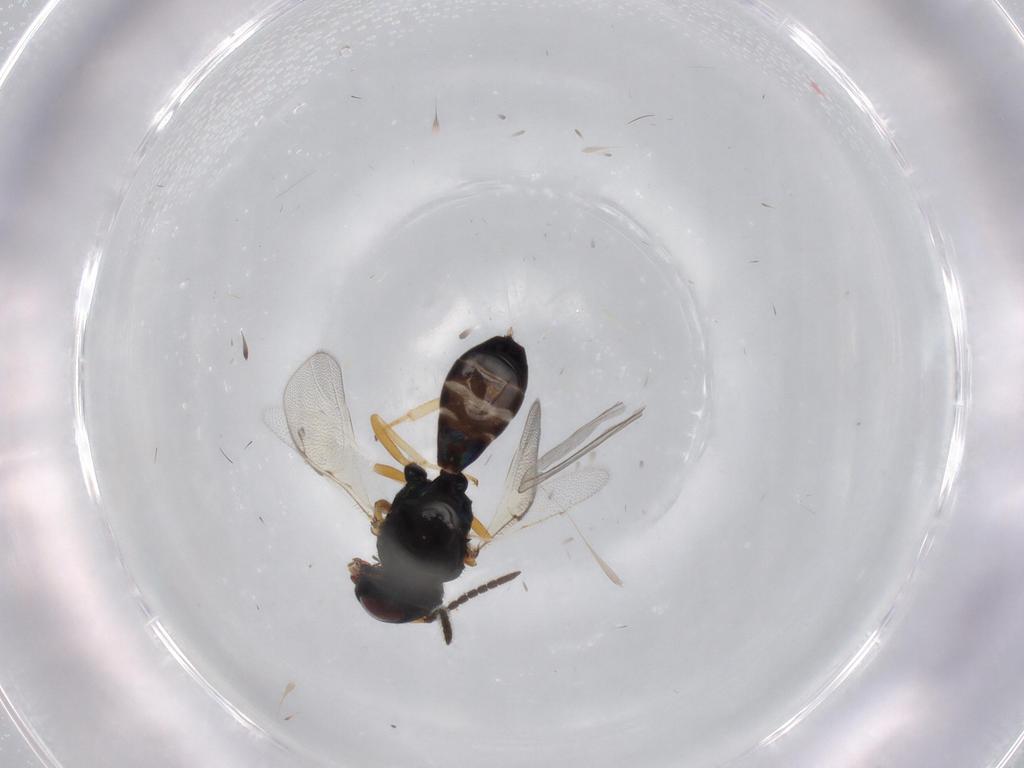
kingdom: Animalia
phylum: Arthropoda
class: Insecta
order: Hymenoptera
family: Pteromalidae
